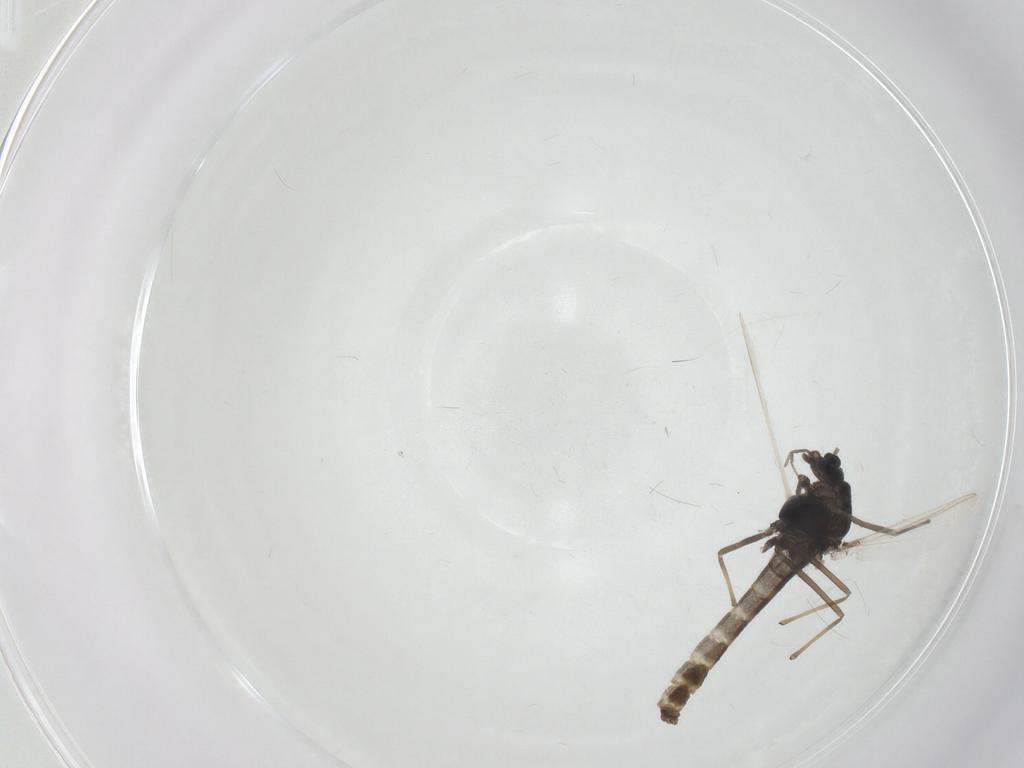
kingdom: Animalia
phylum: Arthropoda
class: Insecta
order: Diptera
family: Chironomidae
